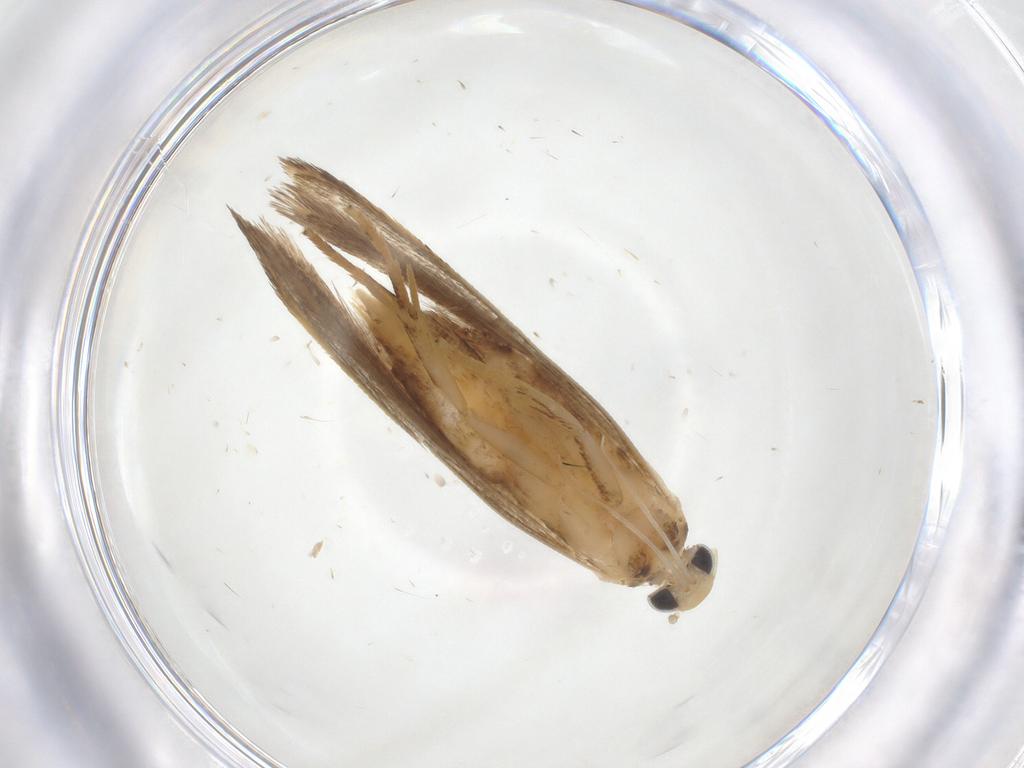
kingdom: Animalia
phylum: Arthropoda
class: Insecta
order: Lepidoptera
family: Gelechiidae
